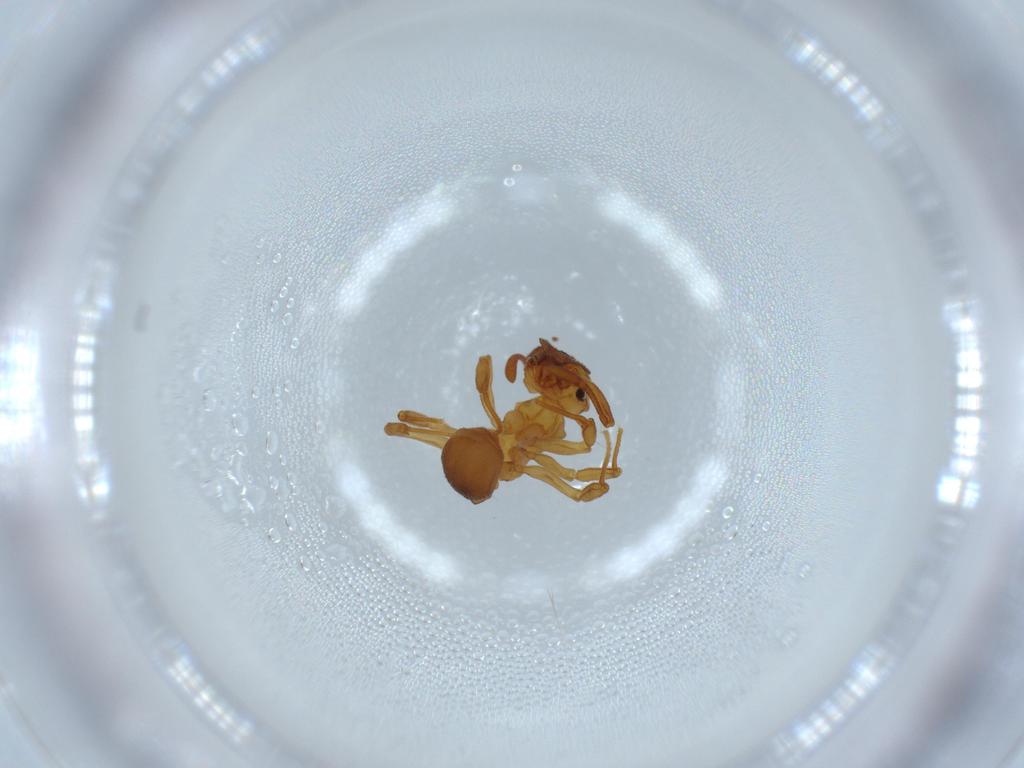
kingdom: Animalia
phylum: Arthropoda
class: Insecta
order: Hymenoptera
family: Formicidae
